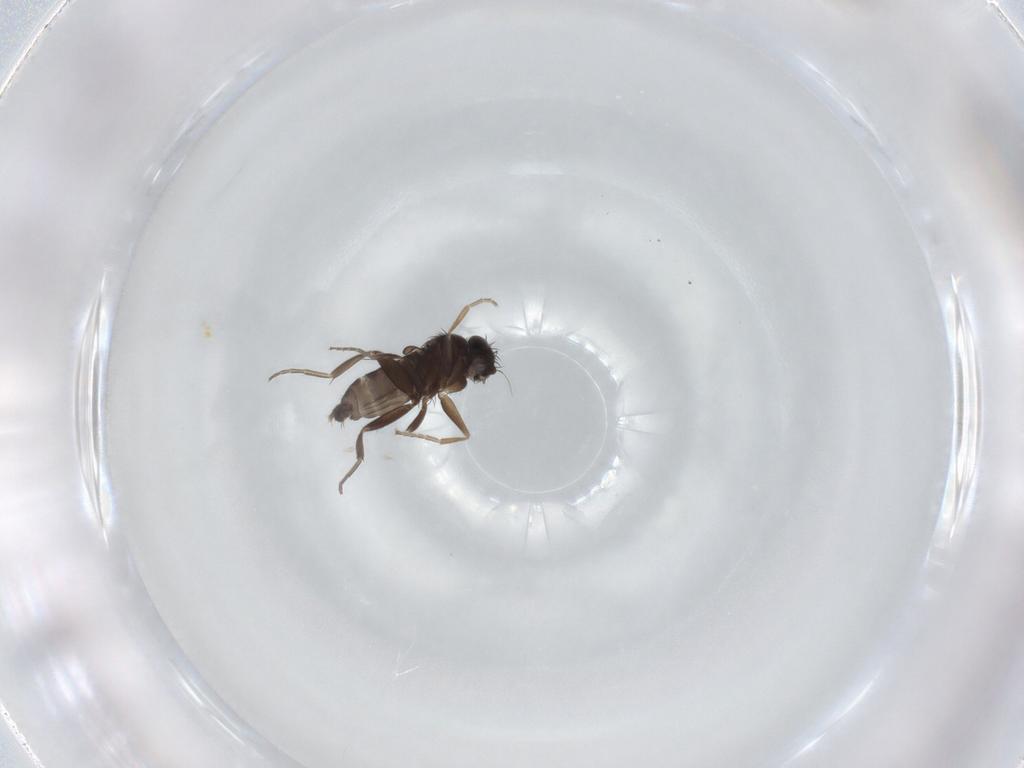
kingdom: Animalia
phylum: Arthropoda
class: Insecta
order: Diptera
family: Phoridae
